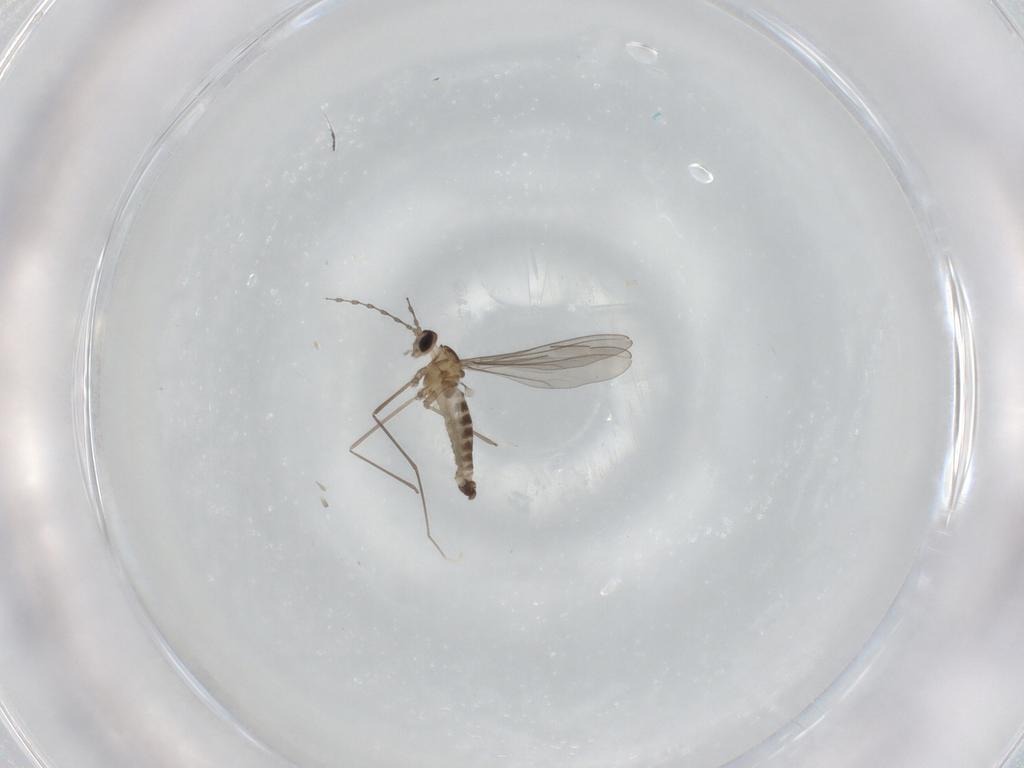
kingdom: Animalia
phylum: Arthropoda
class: Insecta
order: Diptera
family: Cecidomyiidae
